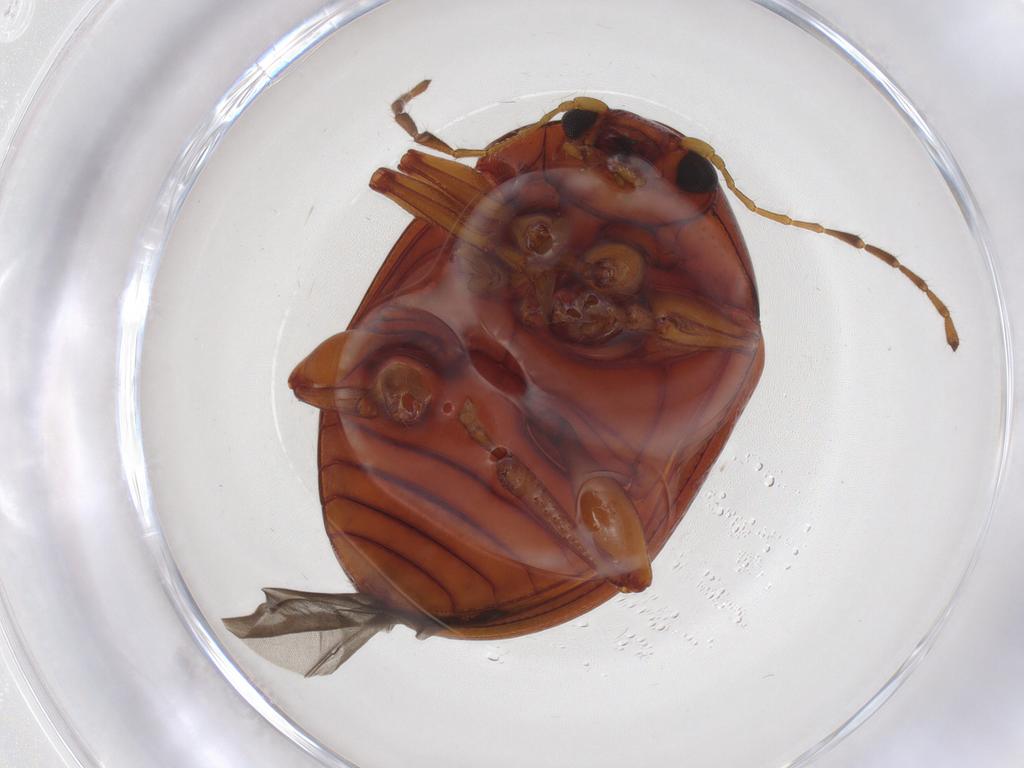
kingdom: Animalia
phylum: Arthropoda
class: Insecta
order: Coleoptera
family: Chrysomelidae
